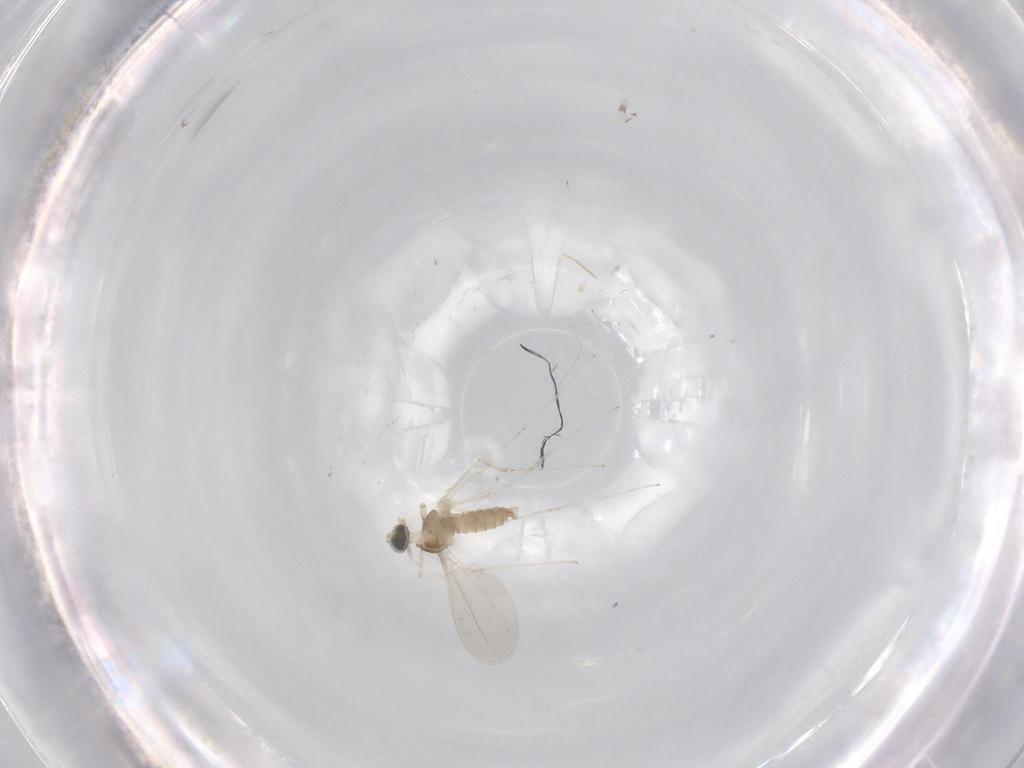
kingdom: Animalia
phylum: Arthropoda
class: Insecta
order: Diptera
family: Cecidomyiidae
